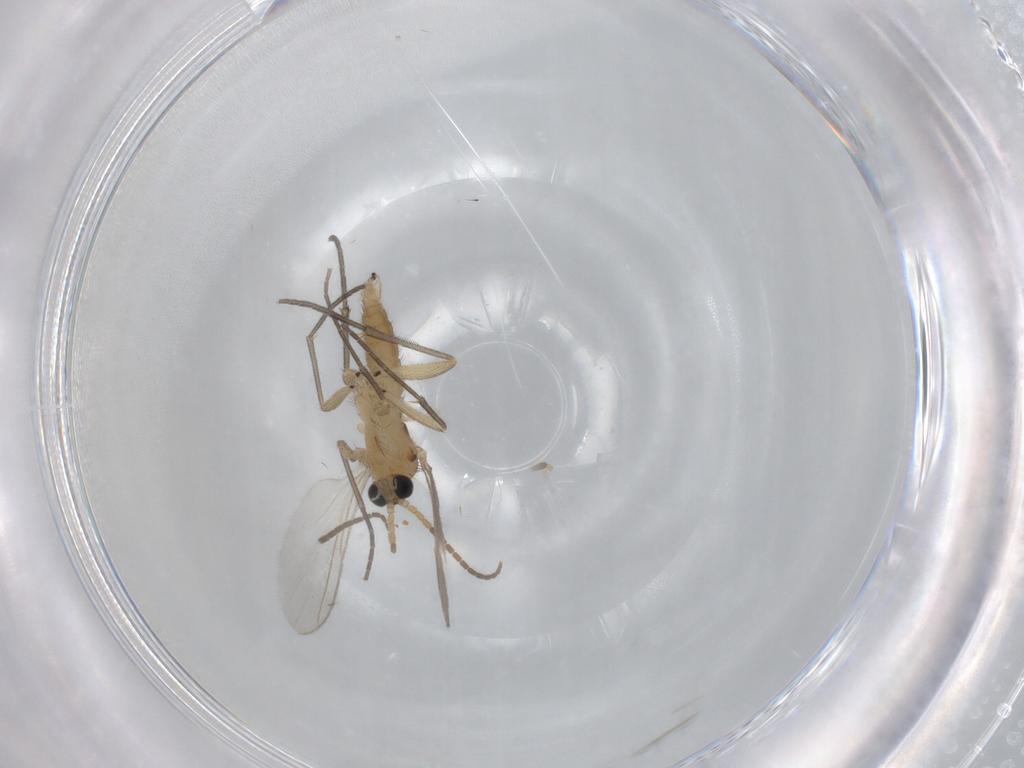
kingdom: Animalia
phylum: Arthropoda
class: Insecta
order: Diptera
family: Sciaridae
